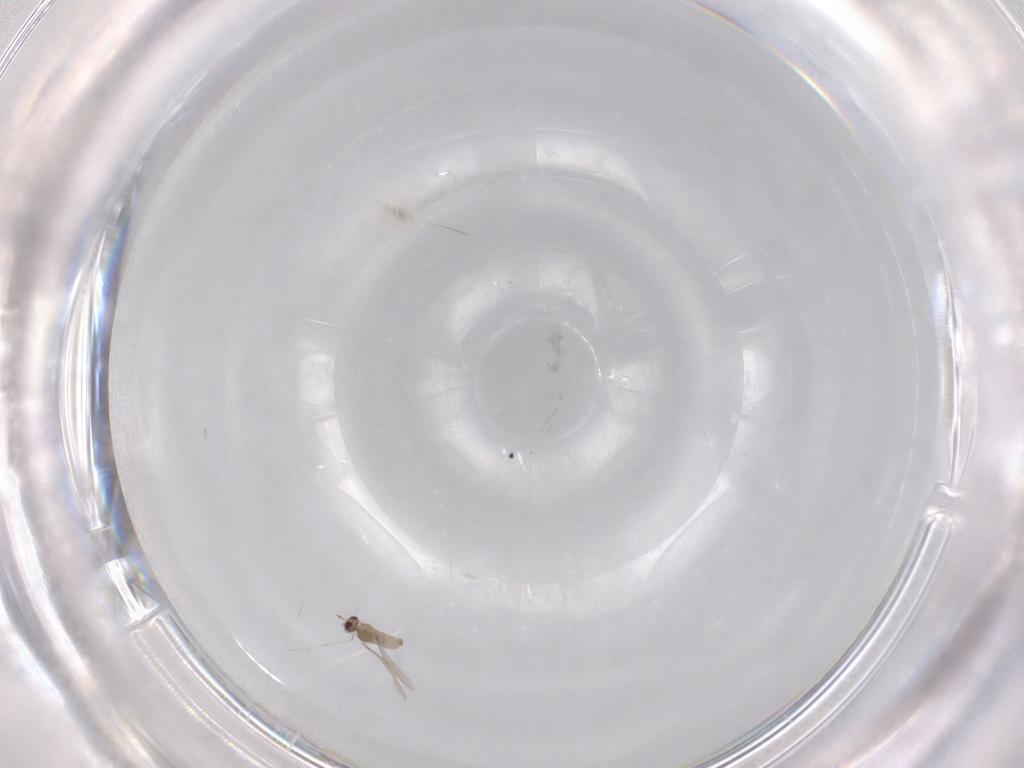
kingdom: Animalia
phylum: Arthropoda
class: Insecta
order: Diptera
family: Cecidomyiidae
